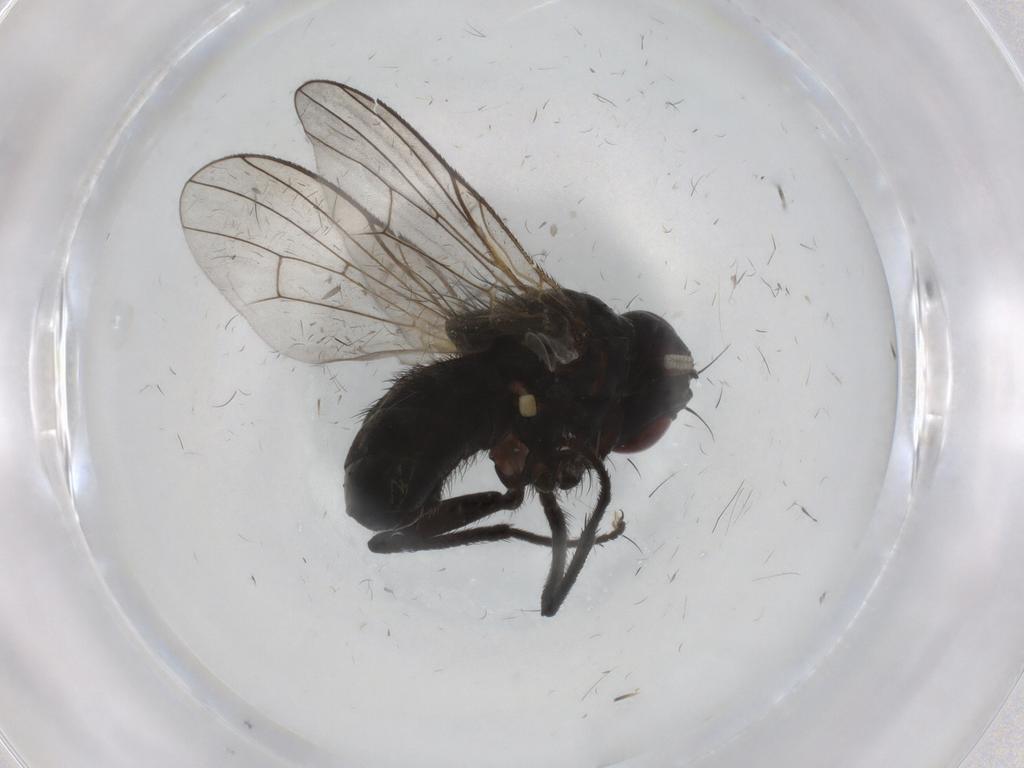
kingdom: Animalia
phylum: Arthropoda
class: Insecta
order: Diptera
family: Muscidae
